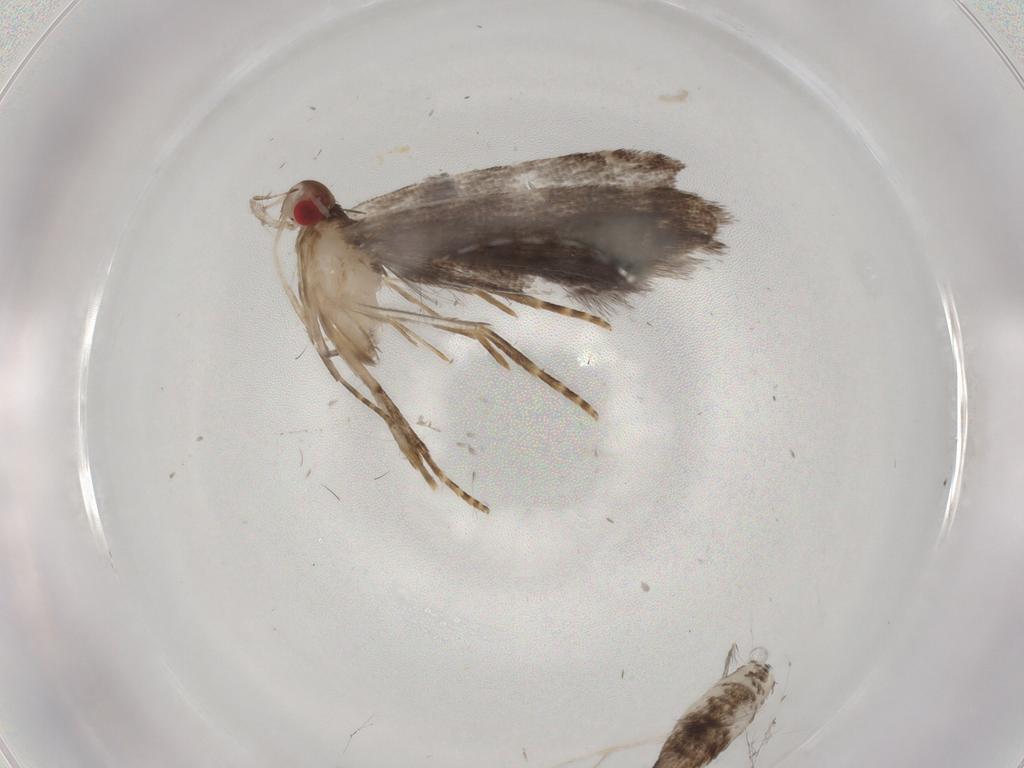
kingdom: Animalia
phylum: Arthropoda
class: Insecta
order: Lepidoptera
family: Gelechiidae
